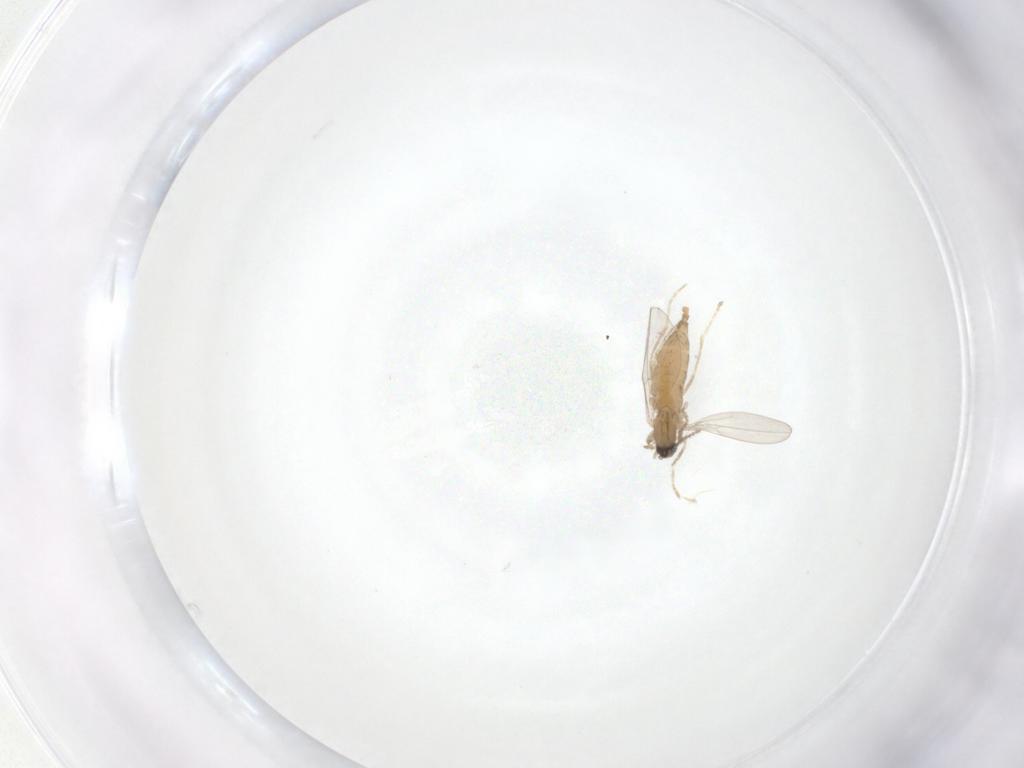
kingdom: Animalia
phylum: Arthropoda
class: Insecta
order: Diptera
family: Cecidomyiidae
